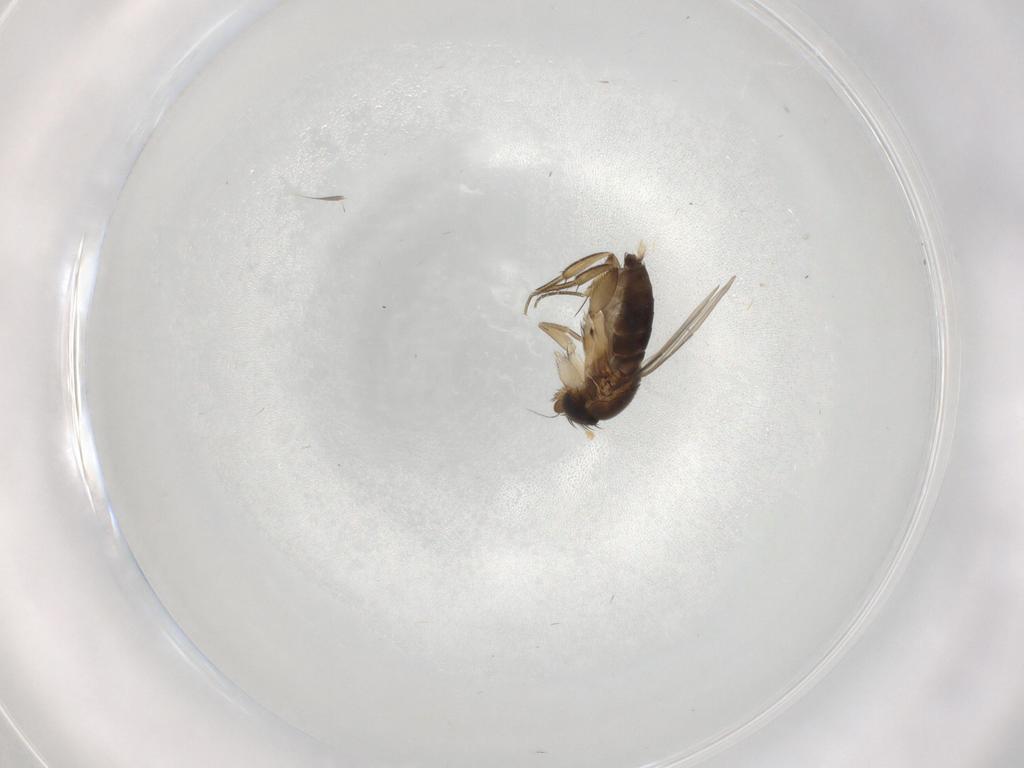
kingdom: Animalia
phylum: Arthropoda
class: Insecta
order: Diptera
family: Phoridae
